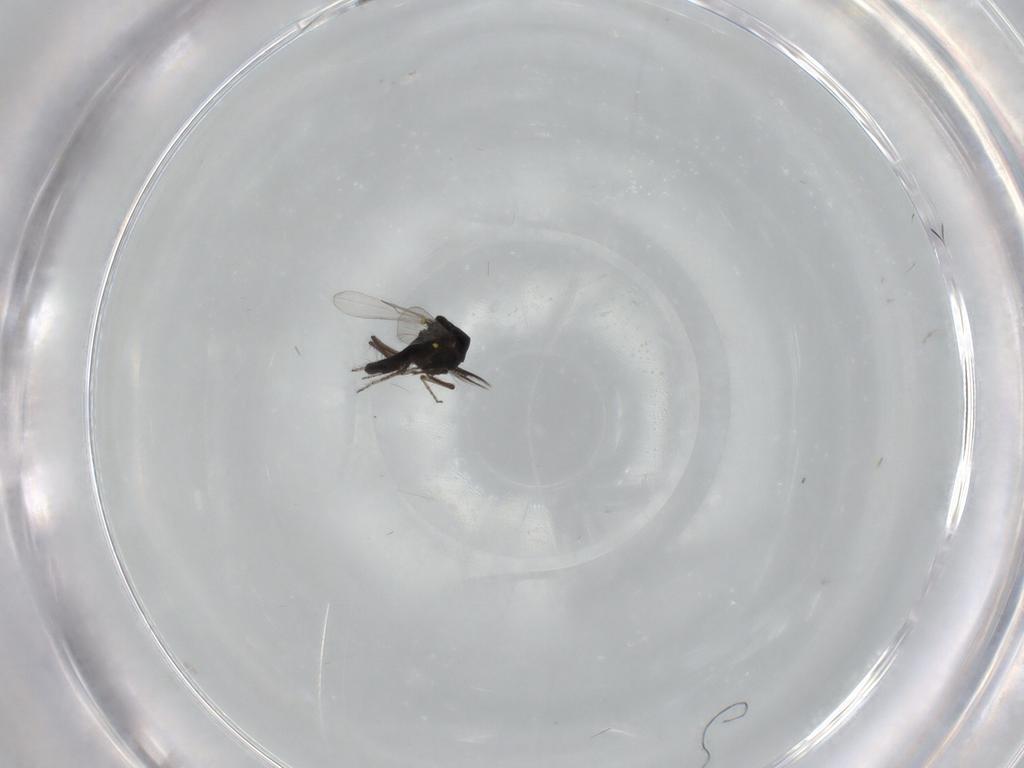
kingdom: Animalia
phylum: Arthropoda
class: Insecta
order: Diptera
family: Ceratopogonidae
